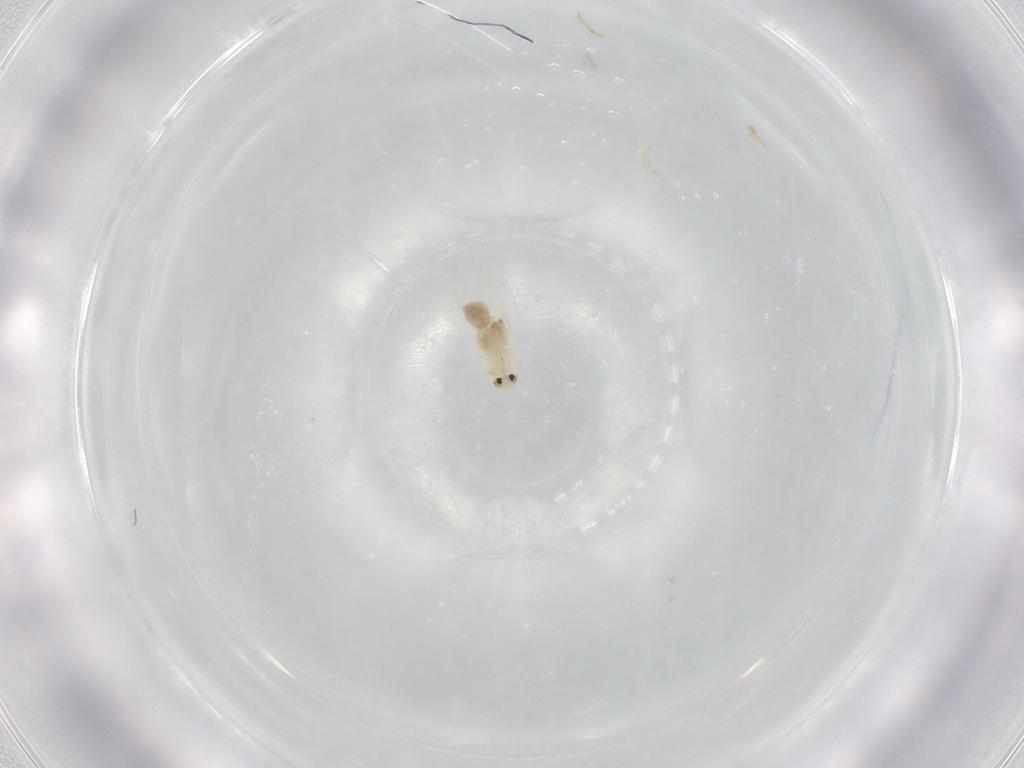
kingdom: Animalia
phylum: Arthropoda
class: Insecta
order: Hemiptera
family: Aleyrodidae
